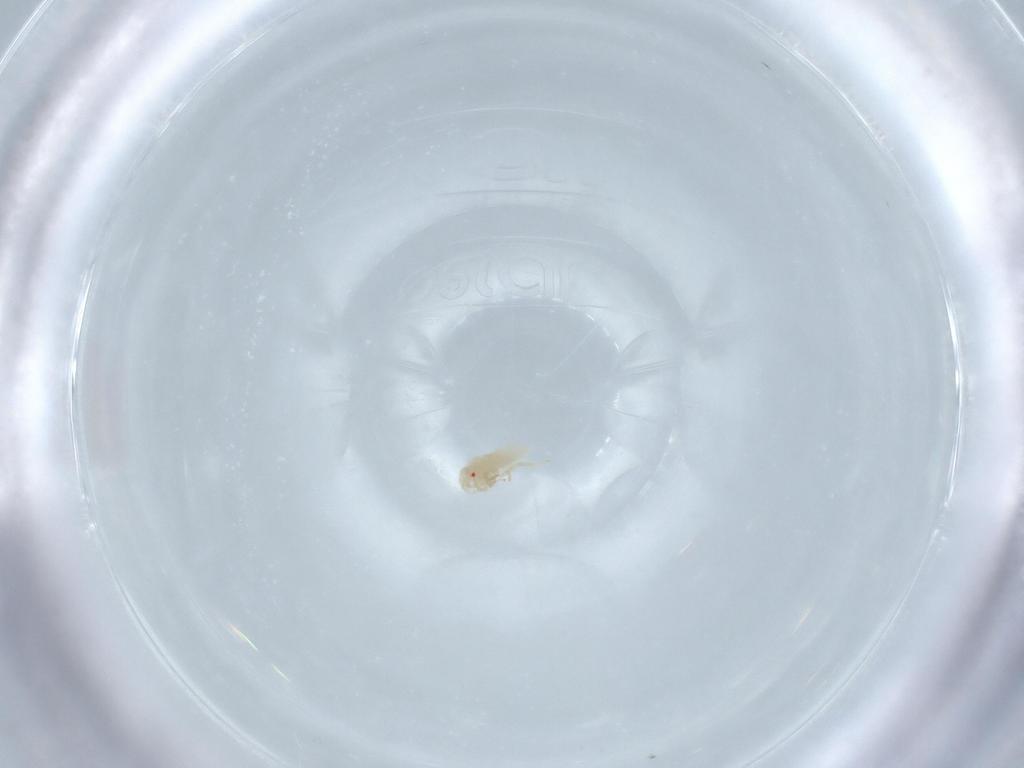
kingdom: Animalia
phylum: Arthropoda
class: Insecta
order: Hemiptera
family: Miridae
